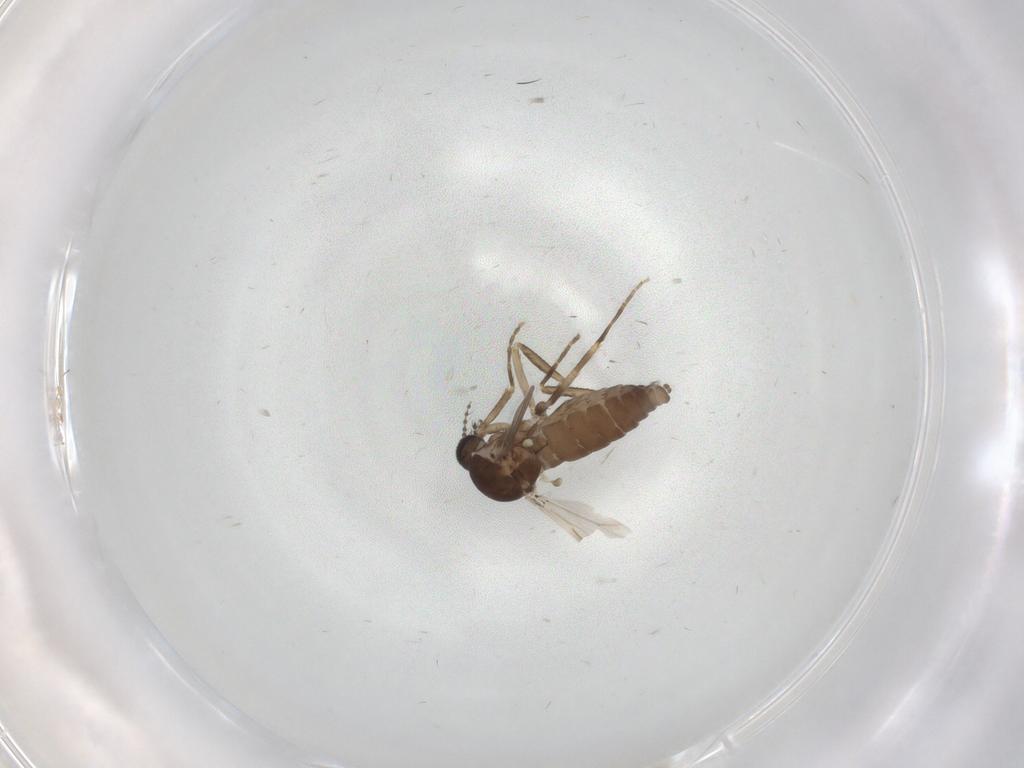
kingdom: Animalia
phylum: Arthropoda
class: Insecta
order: Diptera
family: Ceratopogonidae
